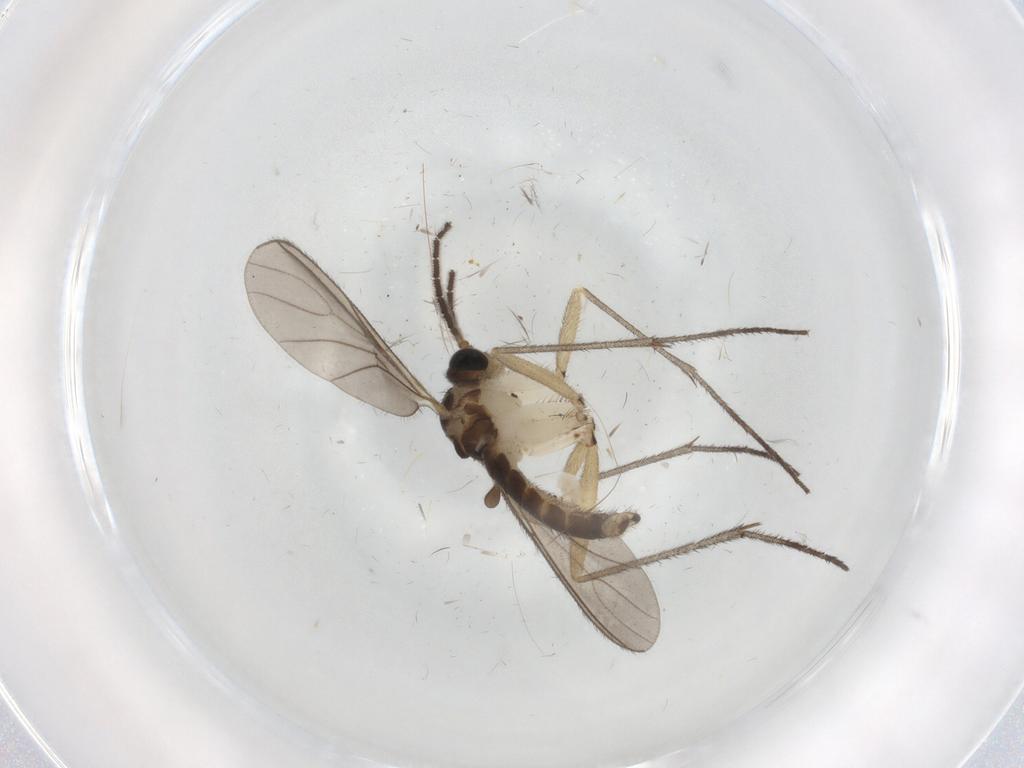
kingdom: Animalia
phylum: Arthropoda
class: Insecta
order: Diptera
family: Sciaridae
